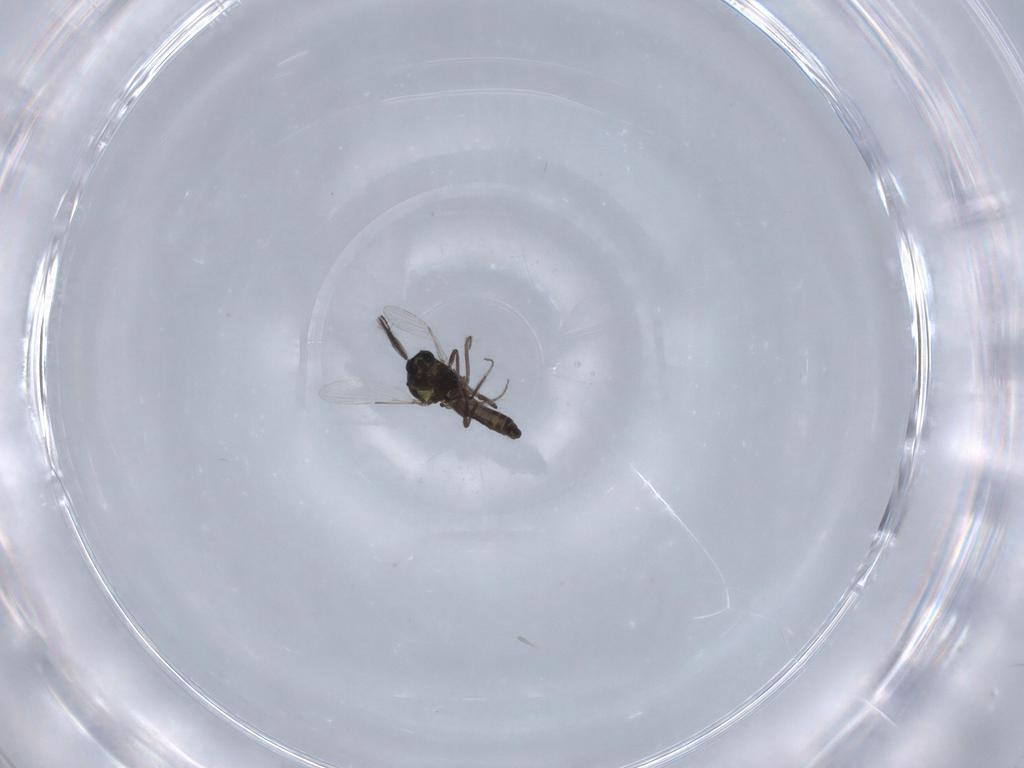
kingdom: Animalia
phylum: Arthropoda
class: Insecta
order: Diptera
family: Ceratopogonidae
